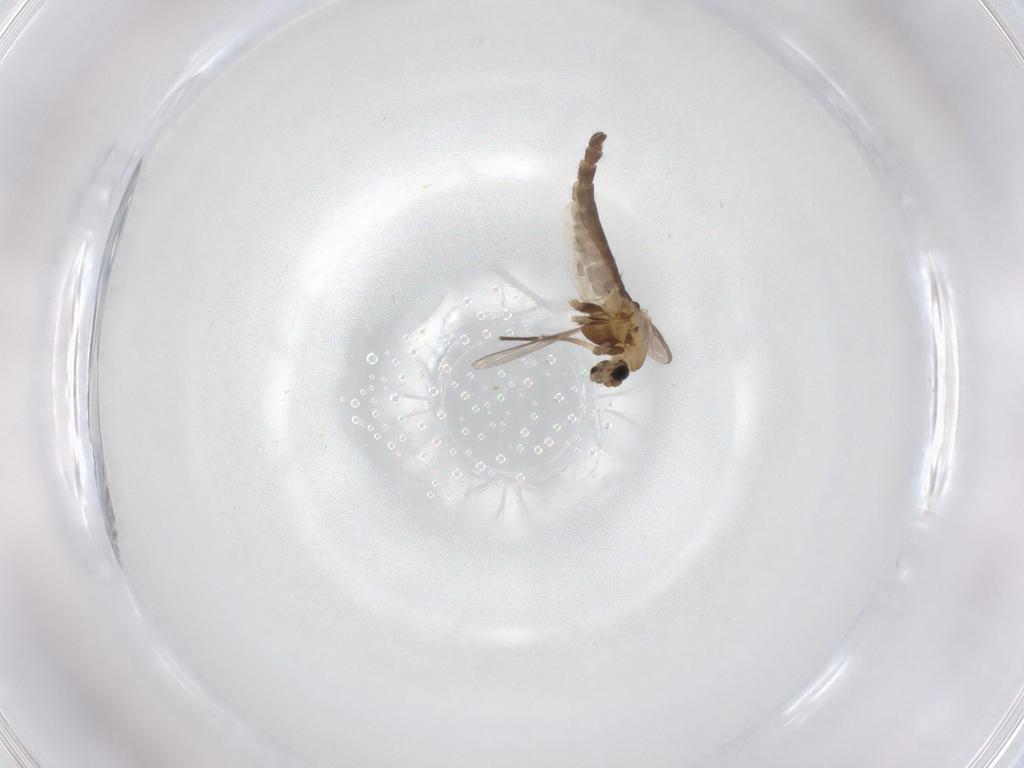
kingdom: Animalia
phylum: Arthropoda
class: Insecta
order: Diptera
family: Chironomidae
